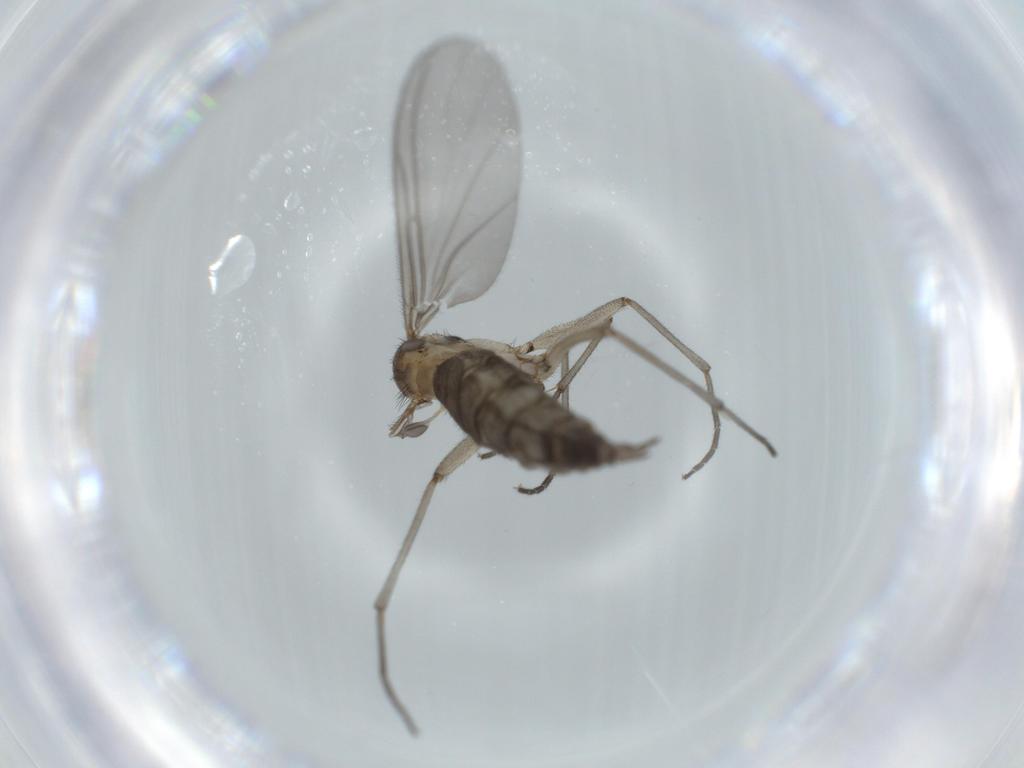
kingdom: Animalia
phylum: Arthropoda
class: Insecta
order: Diptera
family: Sciaridae
